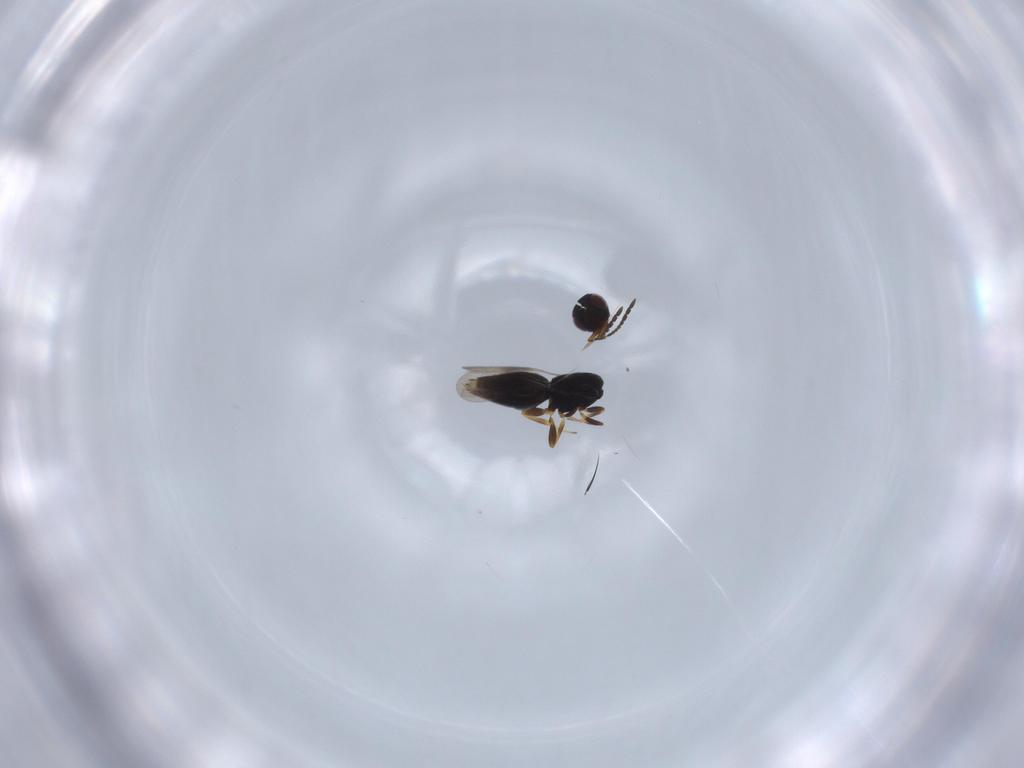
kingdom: Animalia
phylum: Arthropoda
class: Insecta
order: Hymenoptera
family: Ceraphronidae
